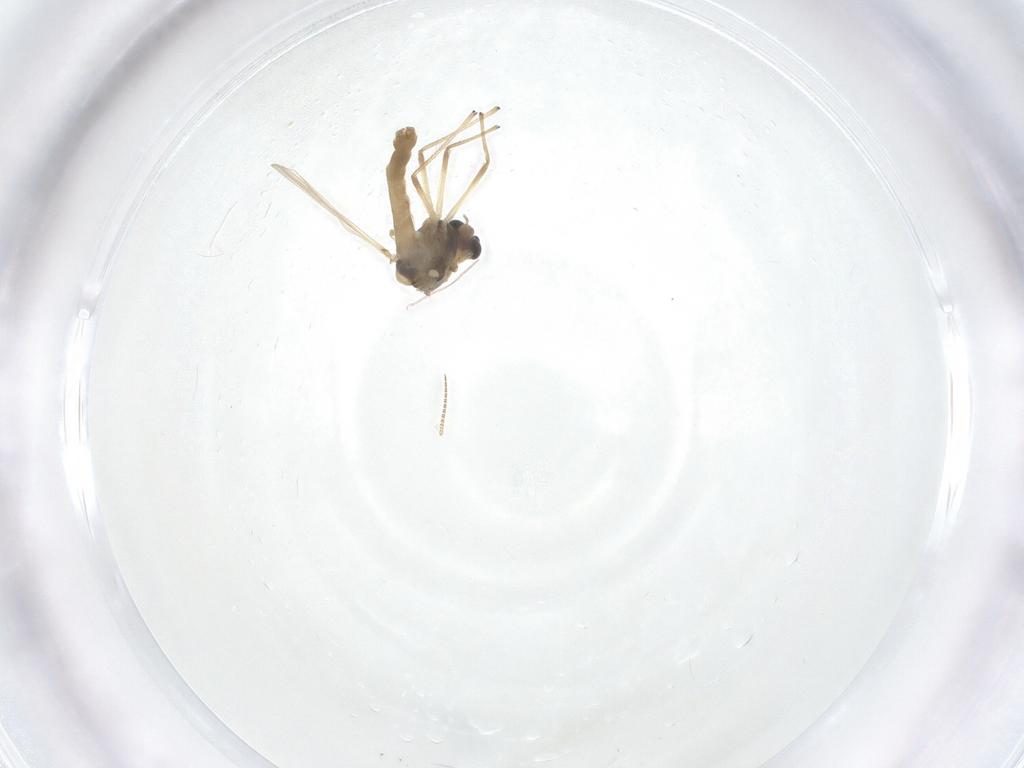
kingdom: Animalia
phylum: Arthropoda
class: Insecta
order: Diptera
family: Chironomidae
